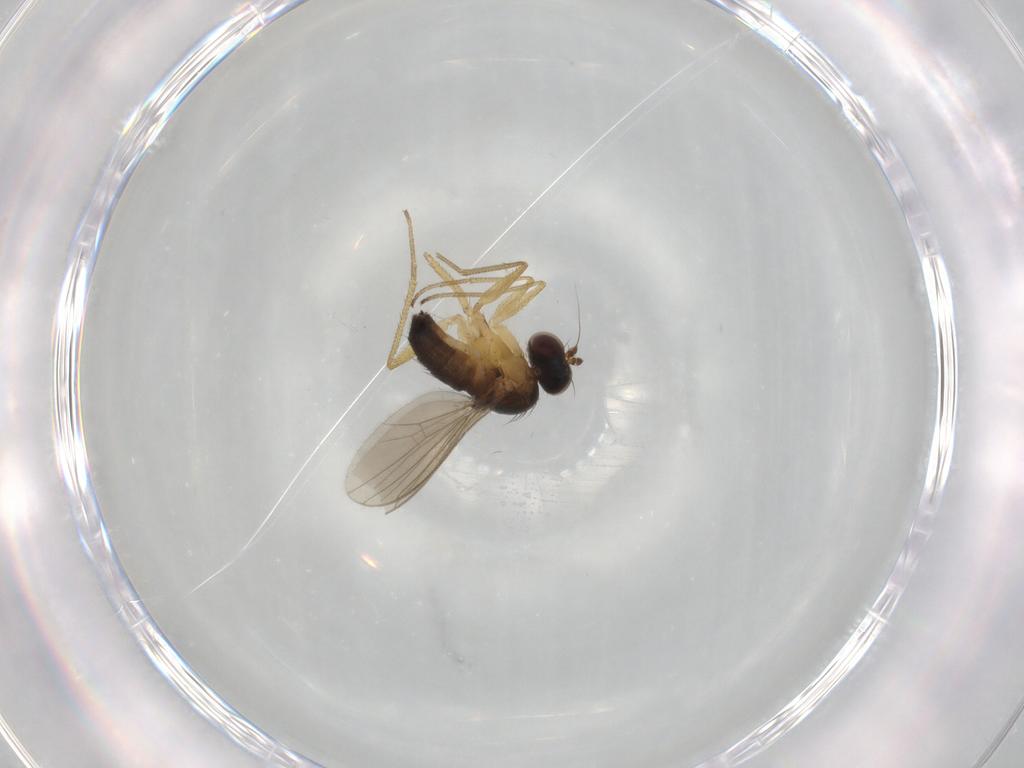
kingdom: Animalia
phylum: Arthropoda
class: Insecta
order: Diptera
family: Dolichopodidae
